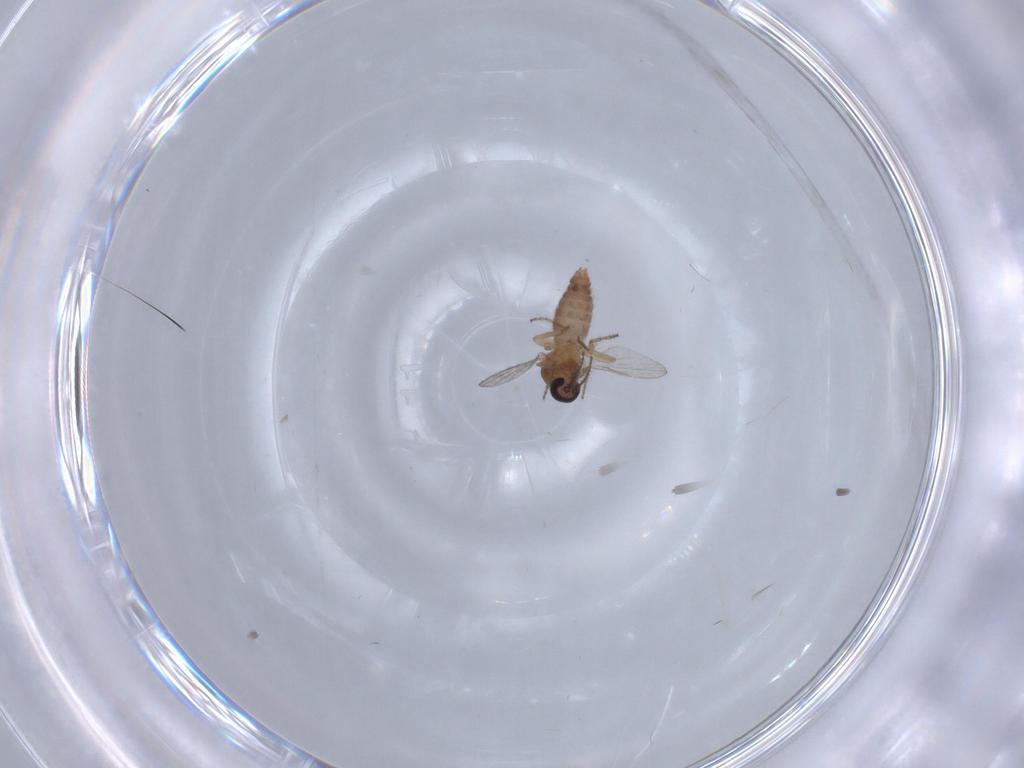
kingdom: Animalia
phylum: Arthropoda
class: Insecta
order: Diptera
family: Ceratopogonidae
